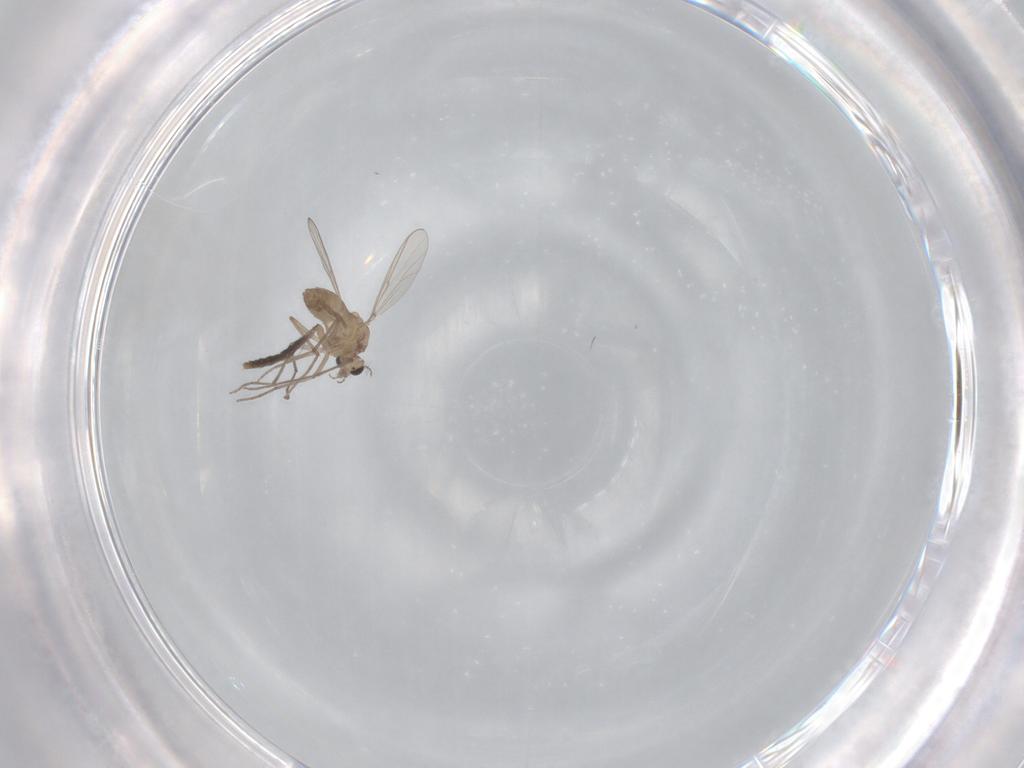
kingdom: Animalia
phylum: Arthropoda
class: Insecta
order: Diptera
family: Chironomidae
